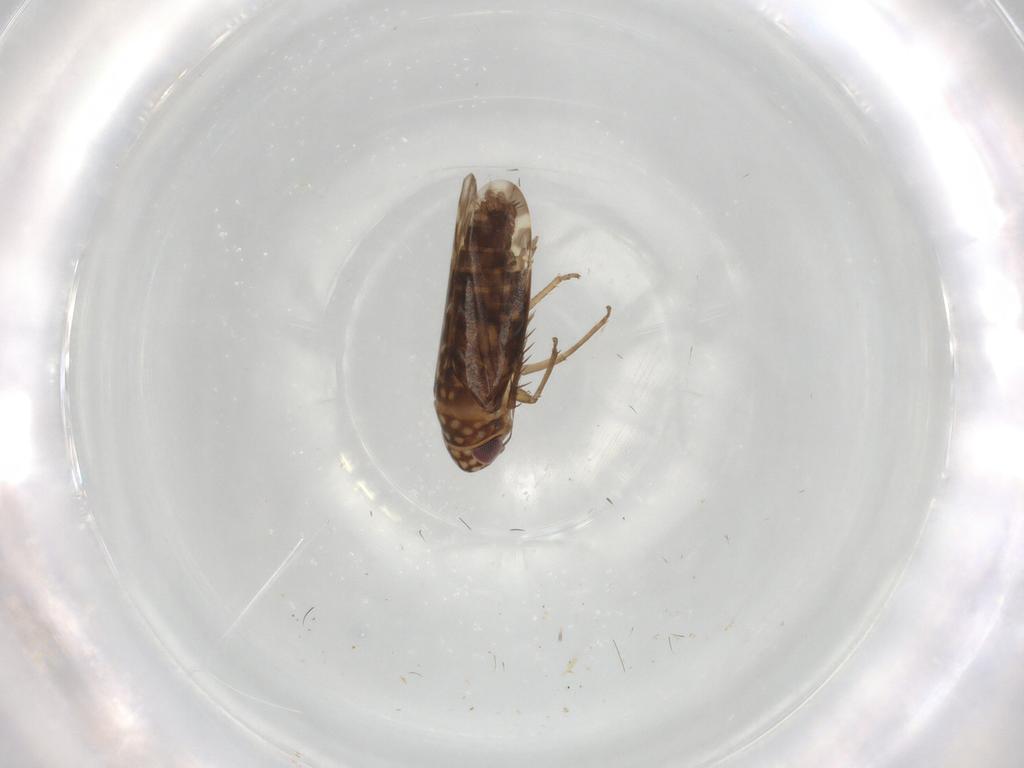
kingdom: Animalia
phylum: Arthropoda
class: Insecta
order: Hemiptera
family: Cicadellidae
